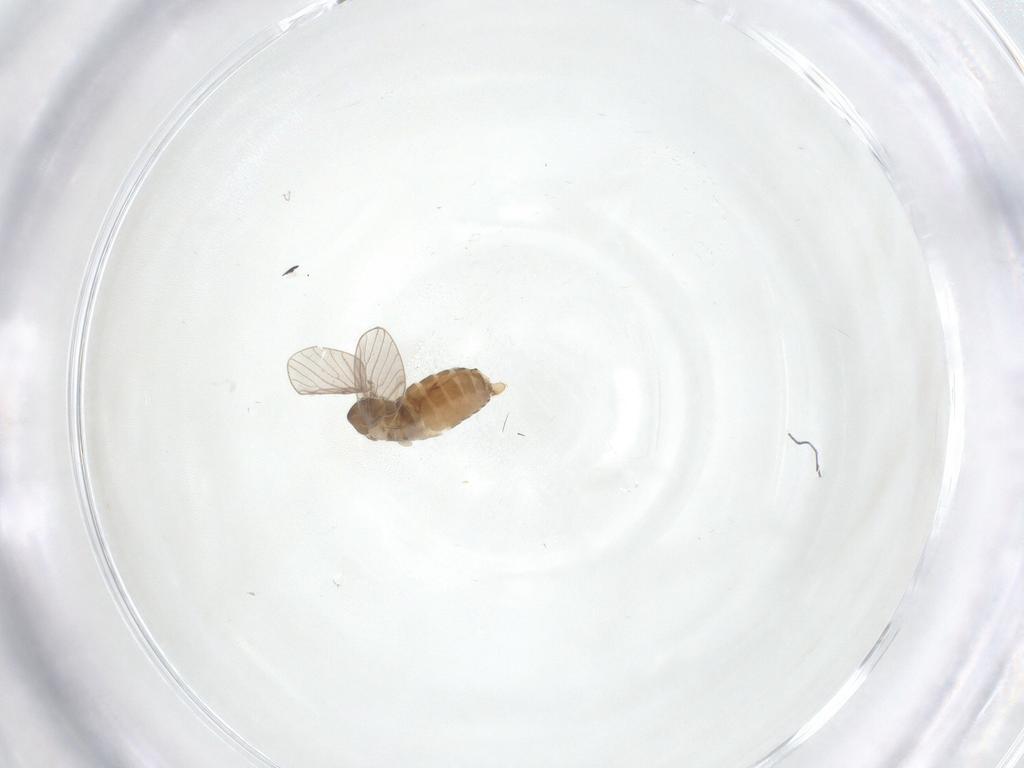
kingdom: Animalia
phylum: Arthropoda
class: Insecta
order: Diptera
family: Psychodidae
